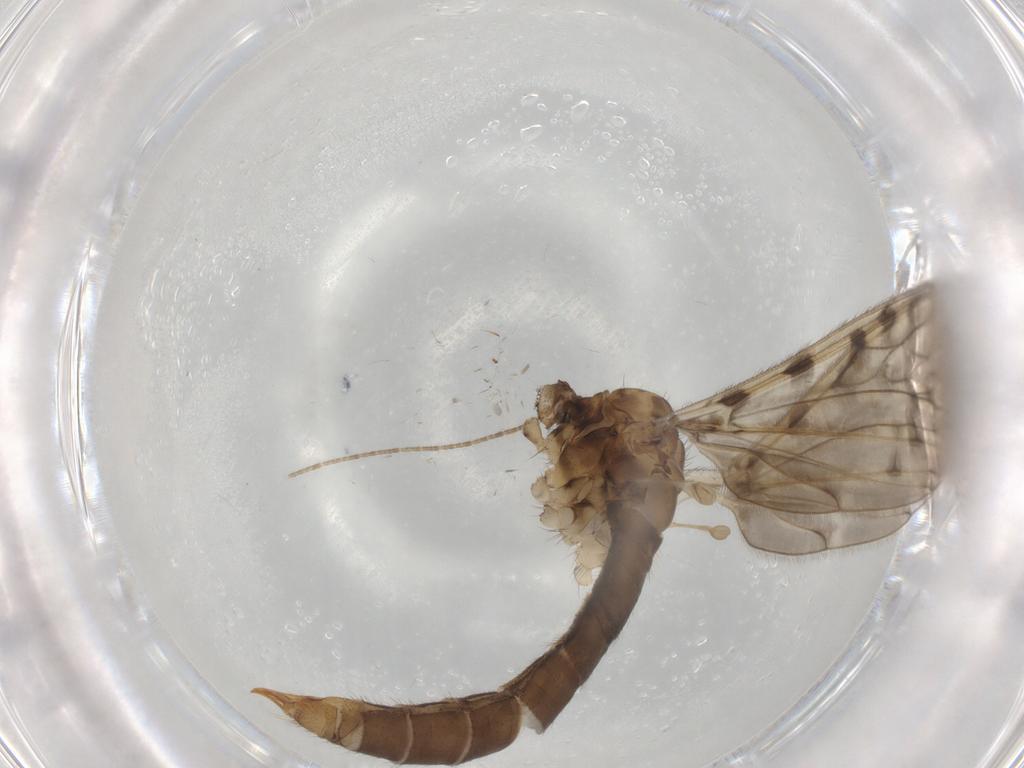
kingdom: Animalia
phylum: Arthropoda
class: Insecta
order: Diptera
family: Limoniidae
